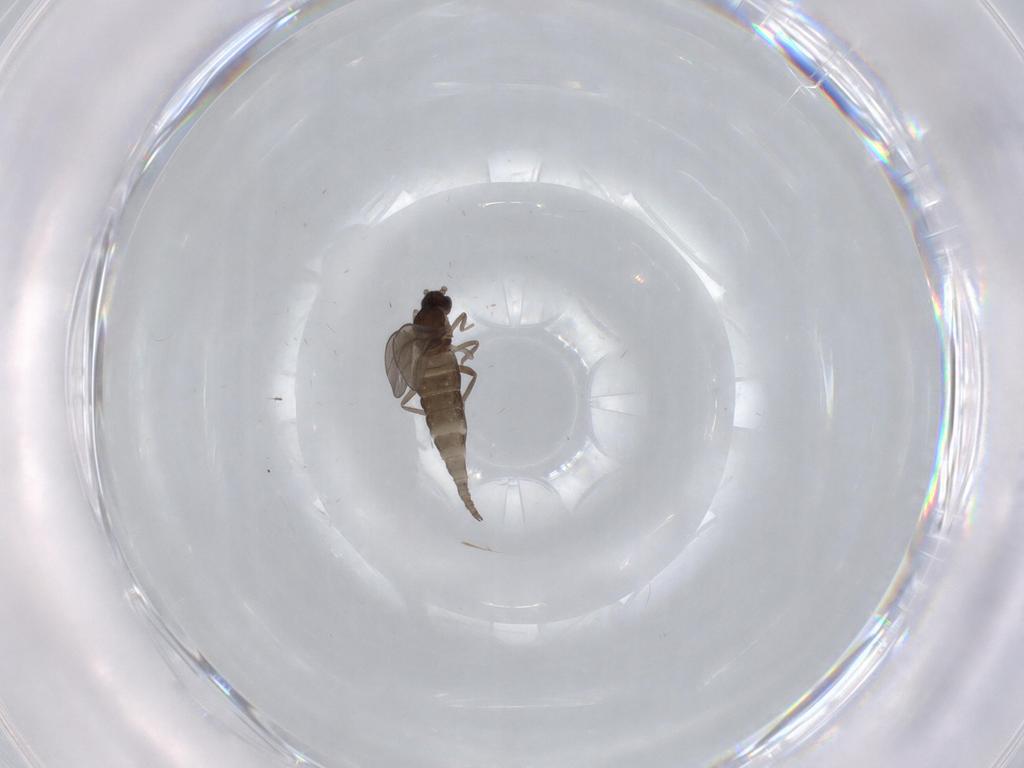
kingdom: Animalia
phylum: Arthropoda
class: Insecta
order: Diptera
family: Cecidomyiidae
